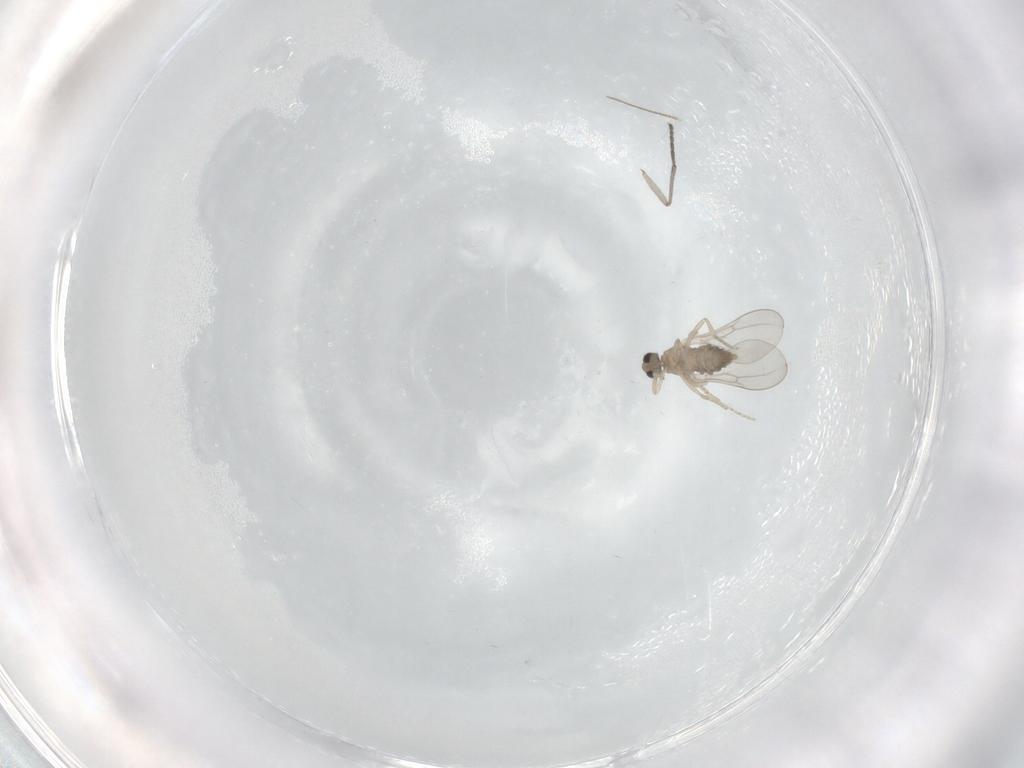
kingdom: Animalia
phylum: Arthropoda
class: Insecta
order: Diptera
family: Cecidomyiidae
